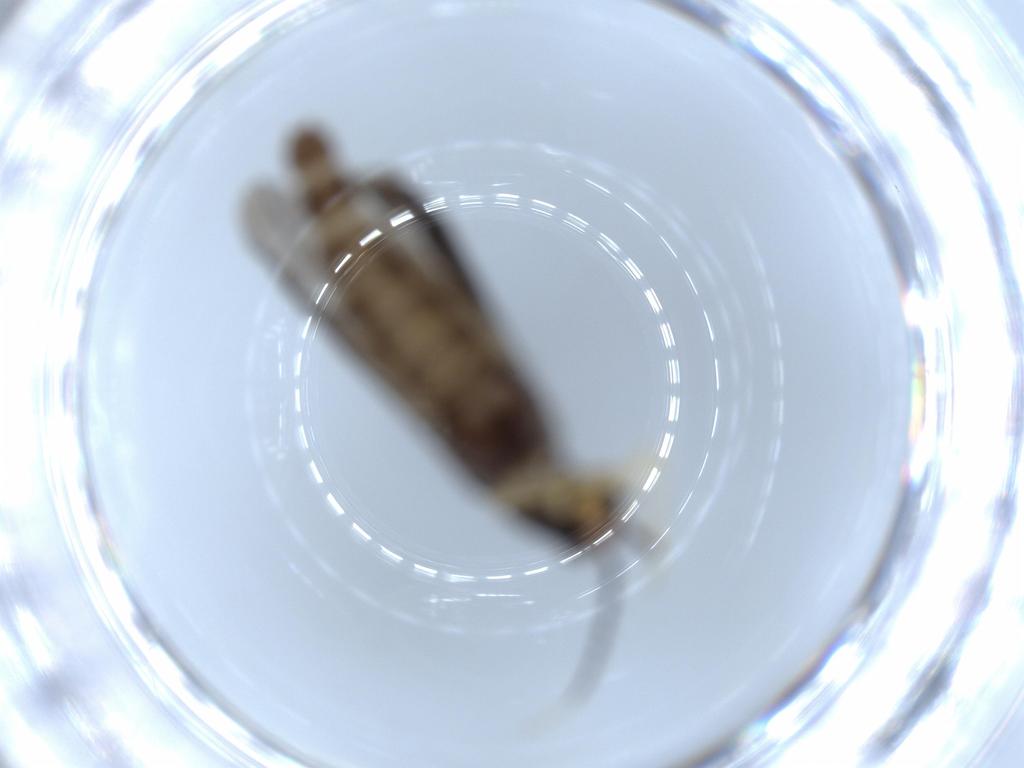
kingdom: Animalia
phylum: Arthropoda
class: Insecta
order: Coleoptera
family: Cantharidae
